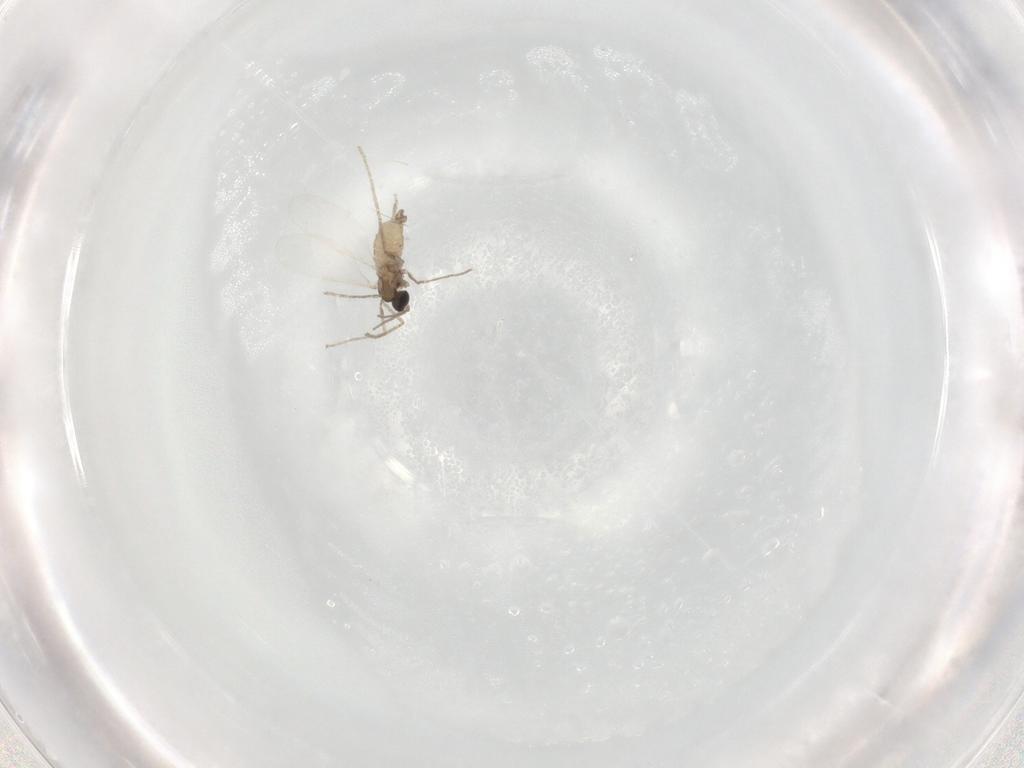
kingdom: Animalia
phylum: Arthropoda
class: Insecta
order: Diptera
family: Cecidomyiidae
